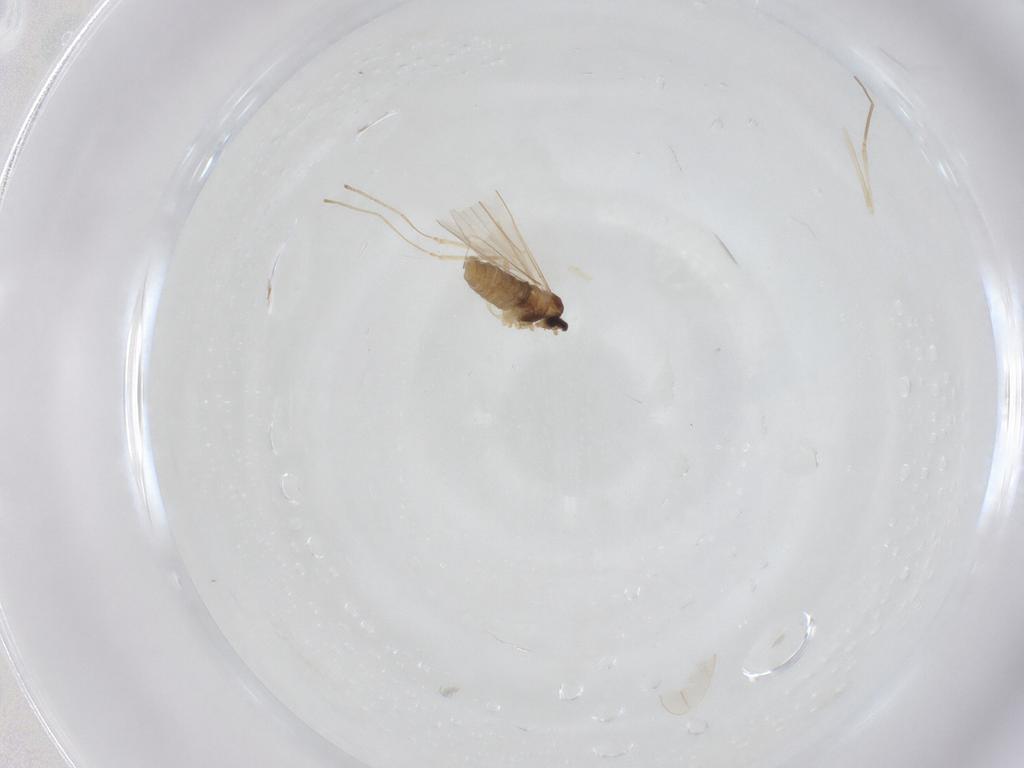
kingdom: Animalia
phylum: Arthropoda
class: Insecta
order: Diptera
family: Cecidomyiidae
